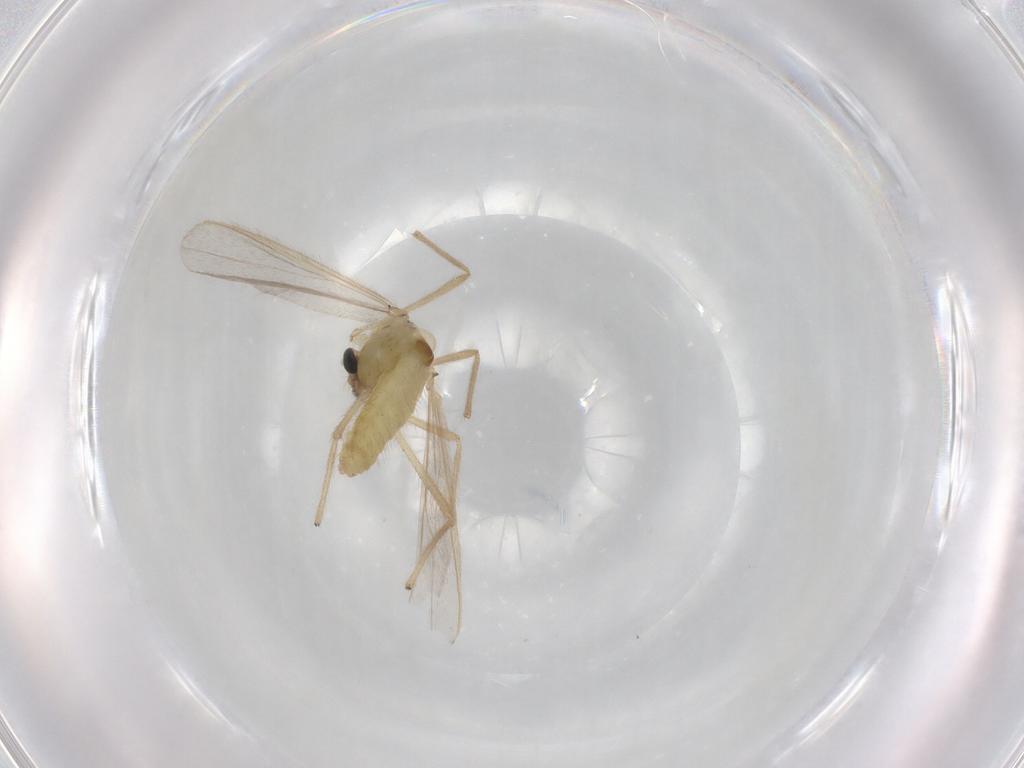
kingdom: Animalia
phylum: Arthropoda
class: Insecta
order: Diptera
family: Chironomidae
